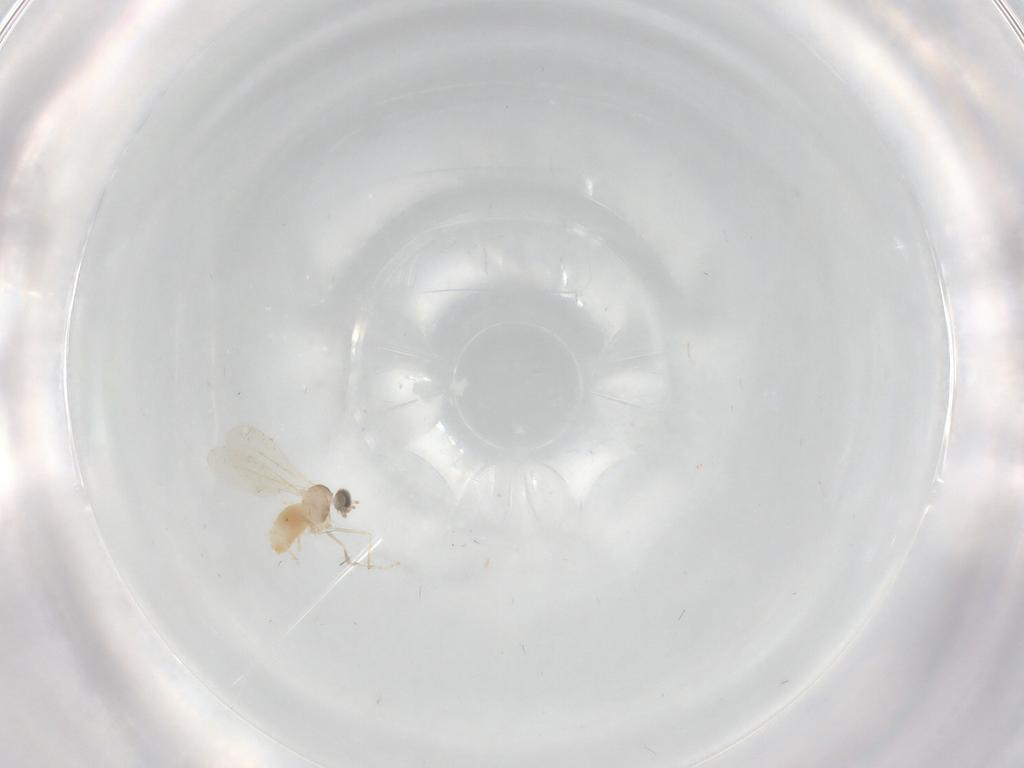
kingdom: Animalia
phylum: Arthropoda
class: Insecta
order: Diptera
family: Cecidomyiidae
